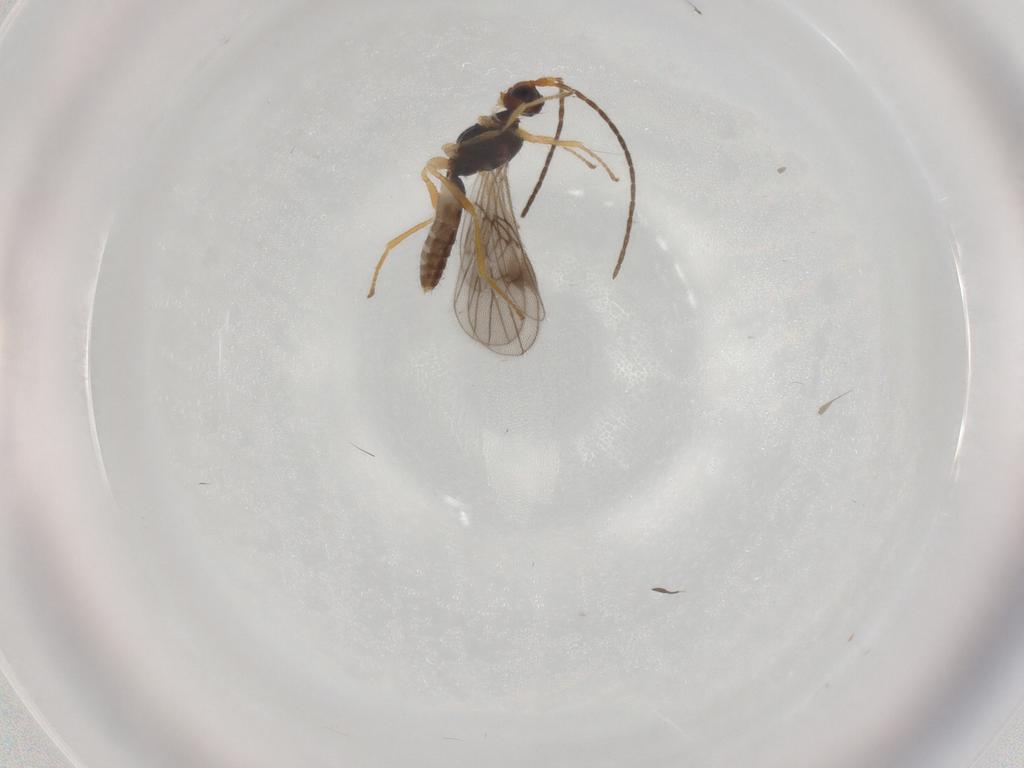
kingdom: Animalia
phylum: Arthropoda
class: Insecta
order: Hymenoptera
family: Braconidae
